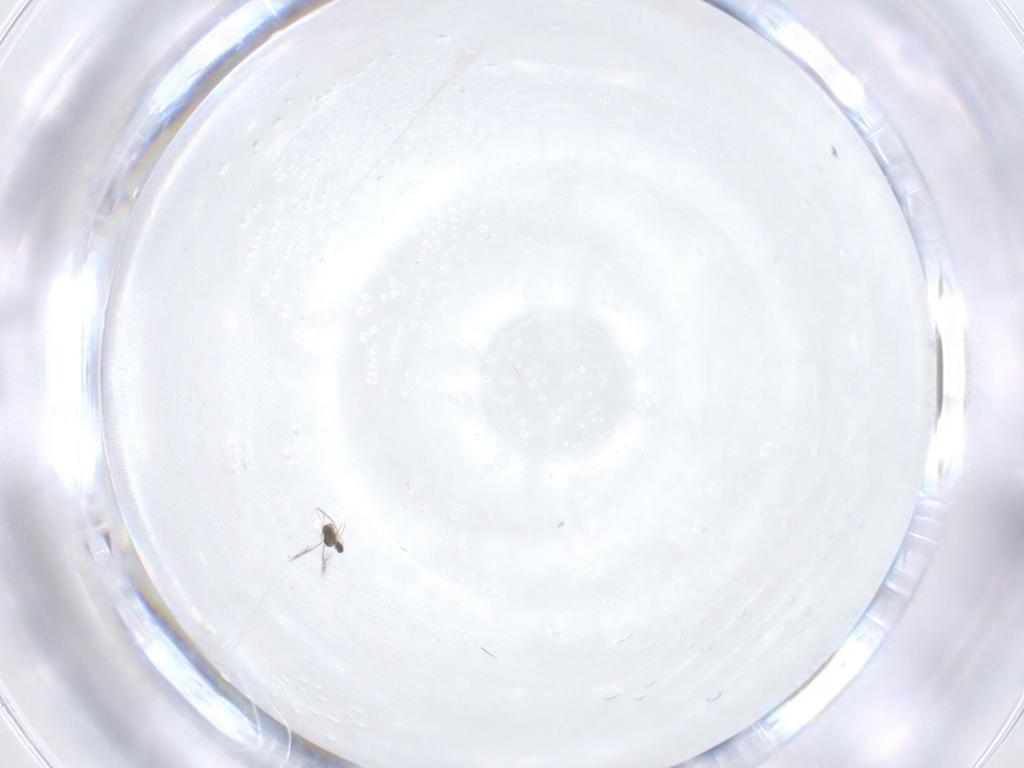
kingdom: Animalia
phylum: Arthropoda
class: Insecta
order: Hymenoptera
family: Mymaridae
